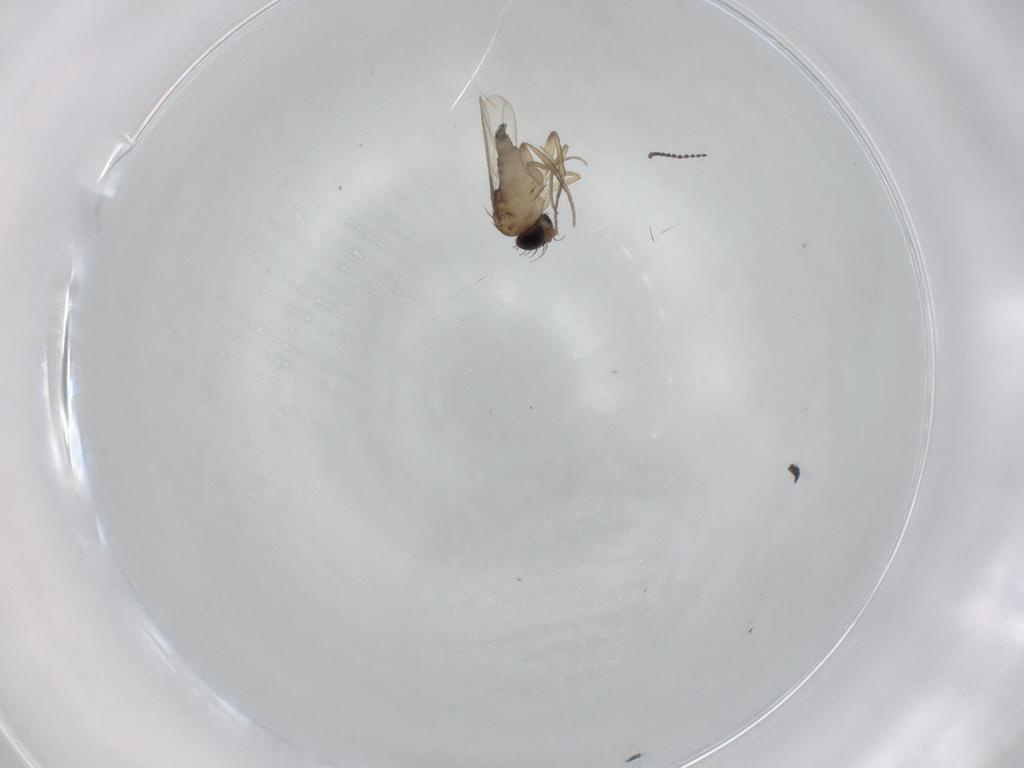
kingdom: Animalia
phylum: Arthropoda
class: Insecta
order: Diptera
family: Phoridae
